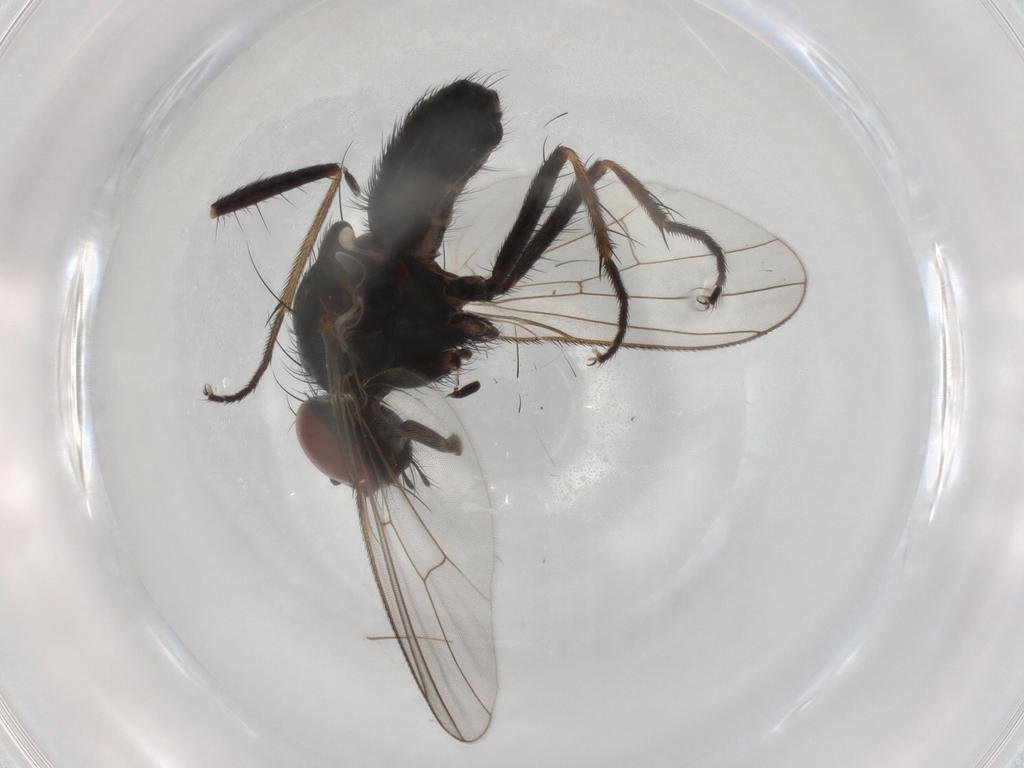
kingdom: Animalia
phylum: Arthropoda
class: Insecta
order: Diptera
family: Muscidae
